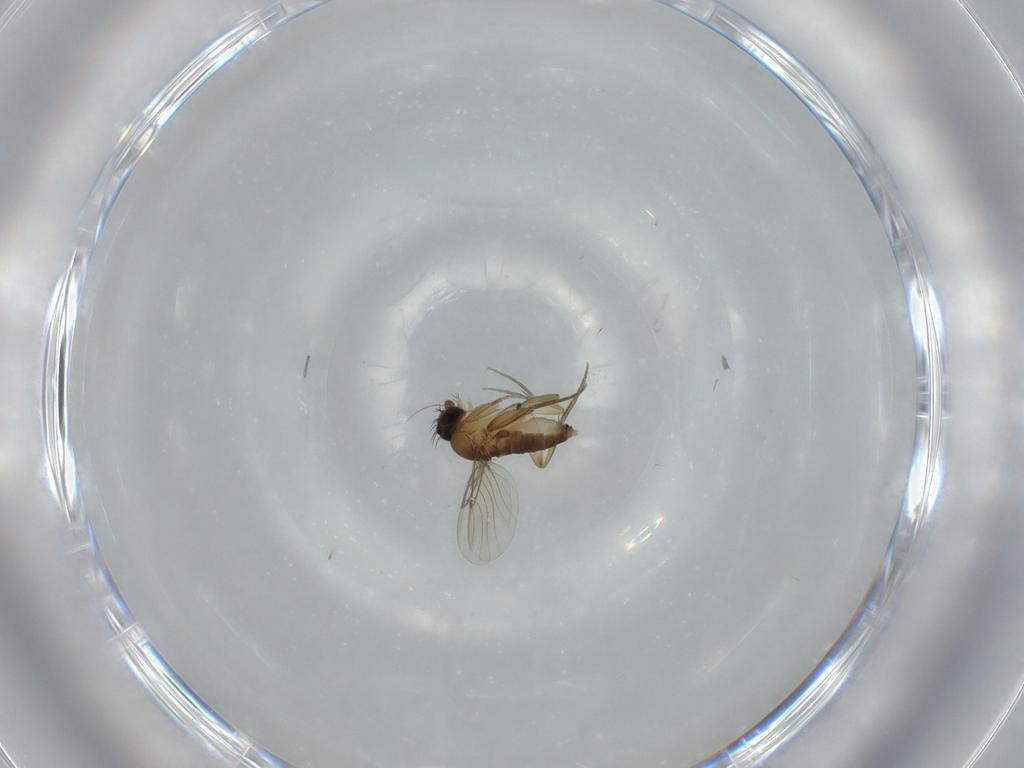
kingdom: Animalia
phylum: Arthropoda
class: Insecta
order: Diptera
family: Phoridae
